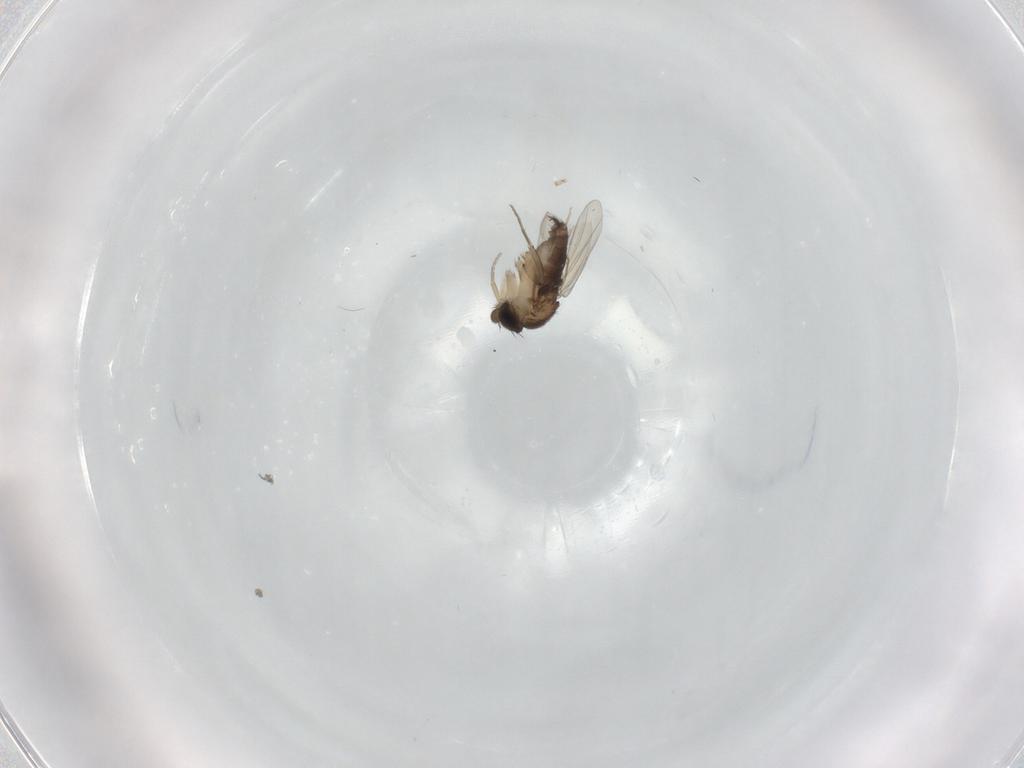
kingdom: Animalia
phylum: Arthropoda
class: Insecta
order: Diptera
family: Phoridae
